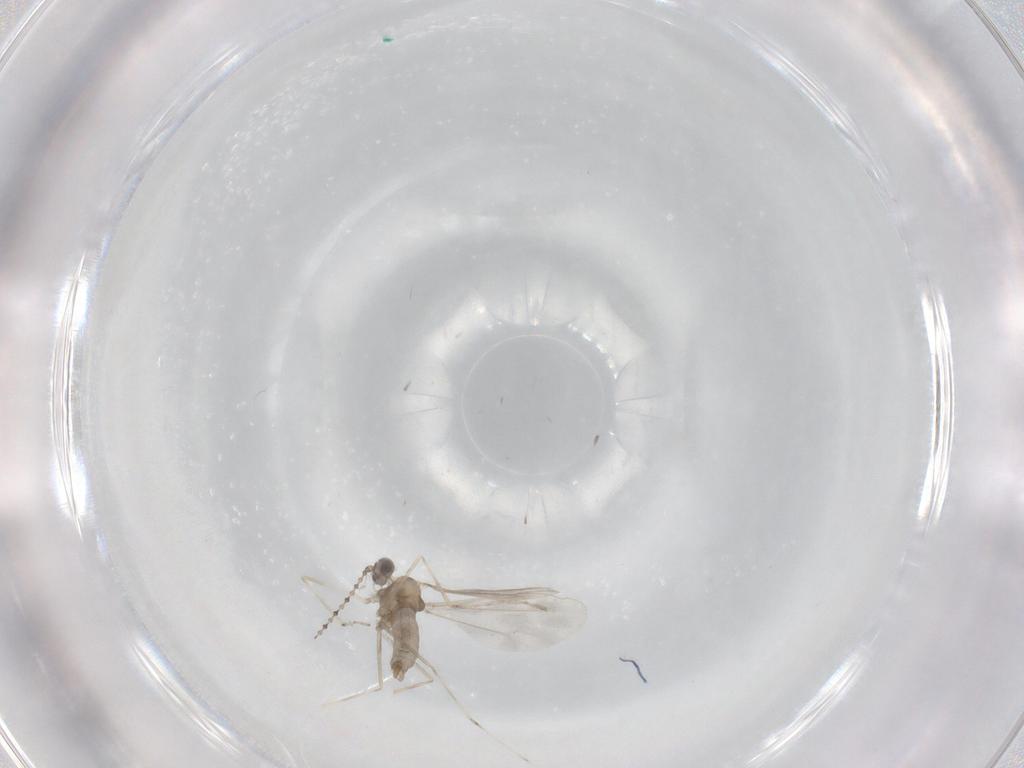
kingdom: Animalia
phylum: Arthropoda
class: Insecta
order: Diptera
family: Cecidomyiidae
